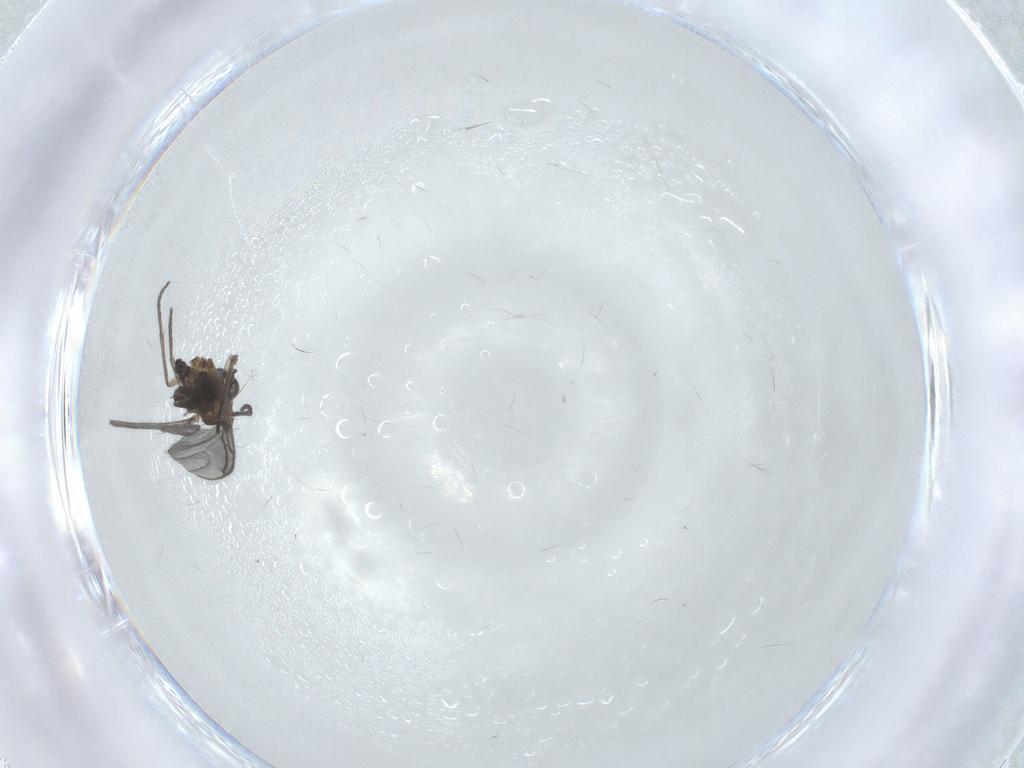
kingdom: Animalia
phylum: Arthropoda
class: Insecta
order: Diptera
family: Sciaridae
